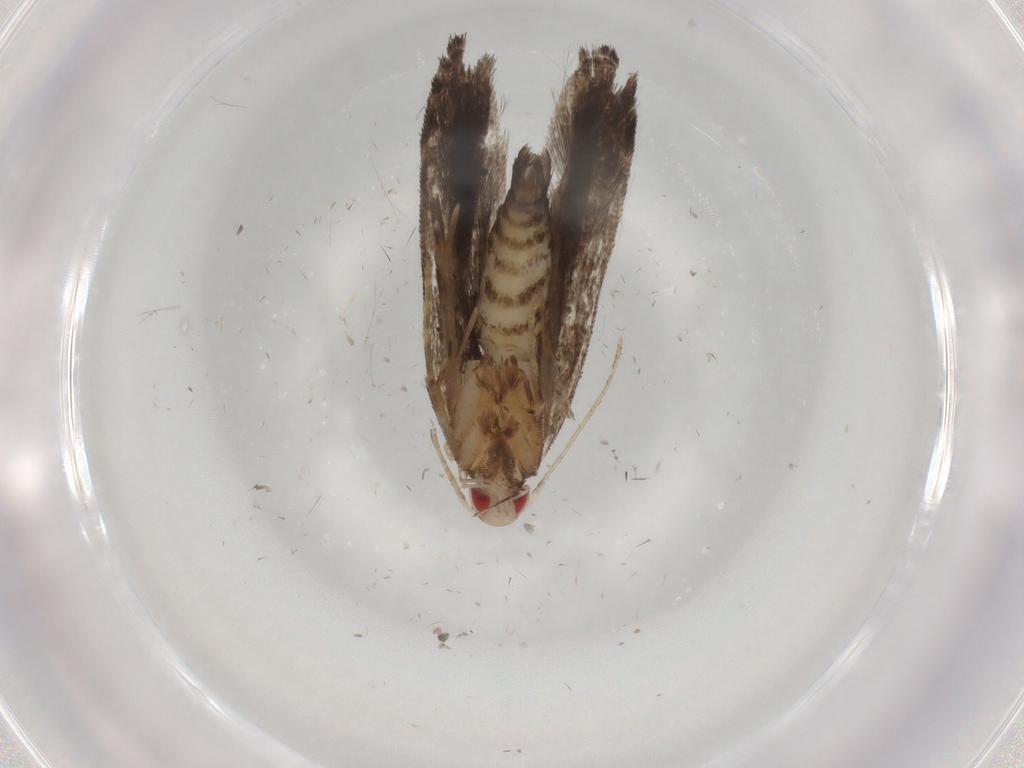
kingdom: Animalia
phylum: Arthropoda
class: Insecta
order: Lepidoptera
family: Gelechiidae
